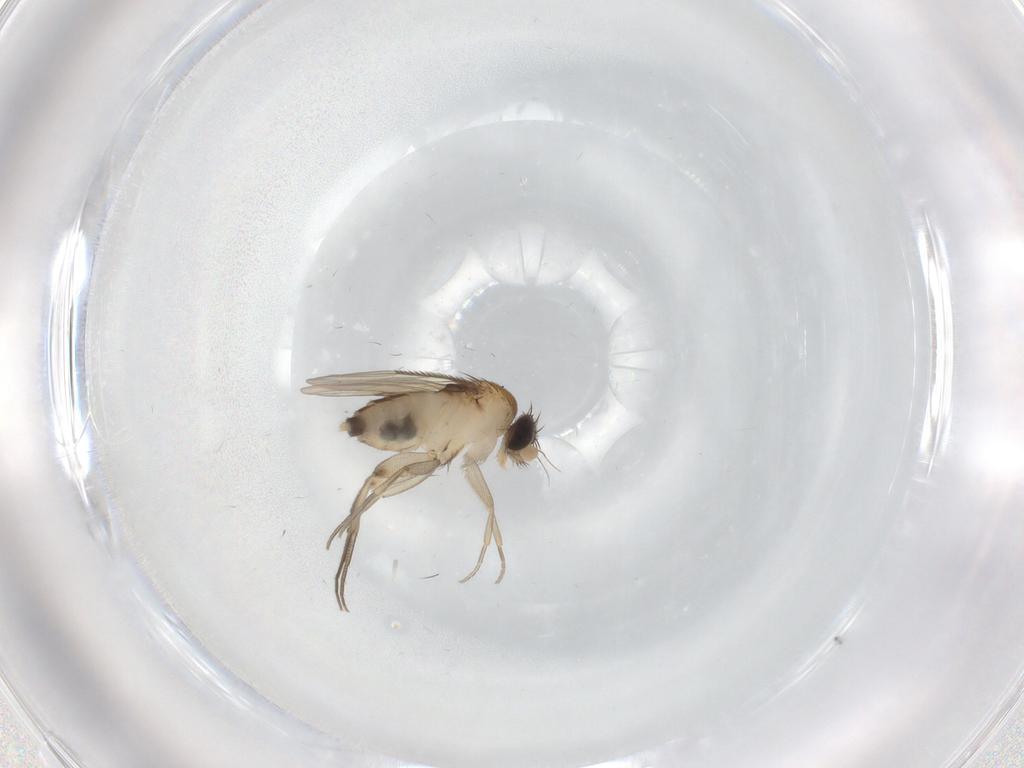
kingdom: Animalia
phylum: Arthropoda
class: Insecta
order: Diptera
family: Phoridae
